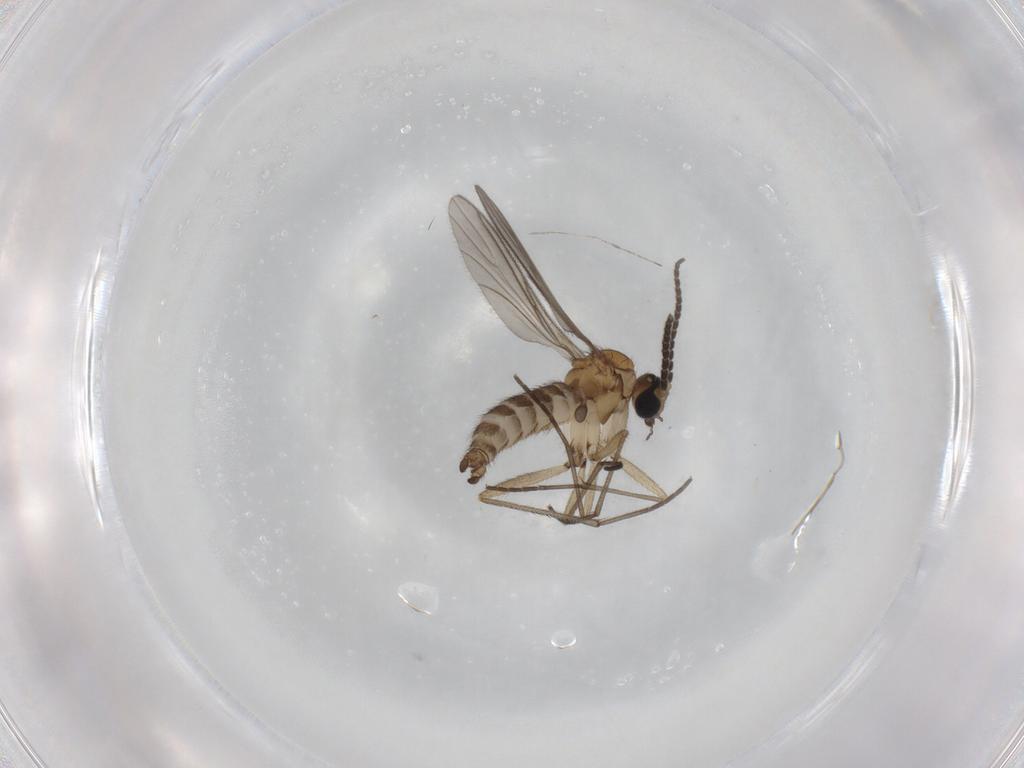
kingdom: Animalia
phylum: Arthropoda
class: Insecta
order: Diptera
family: Sciaridae
